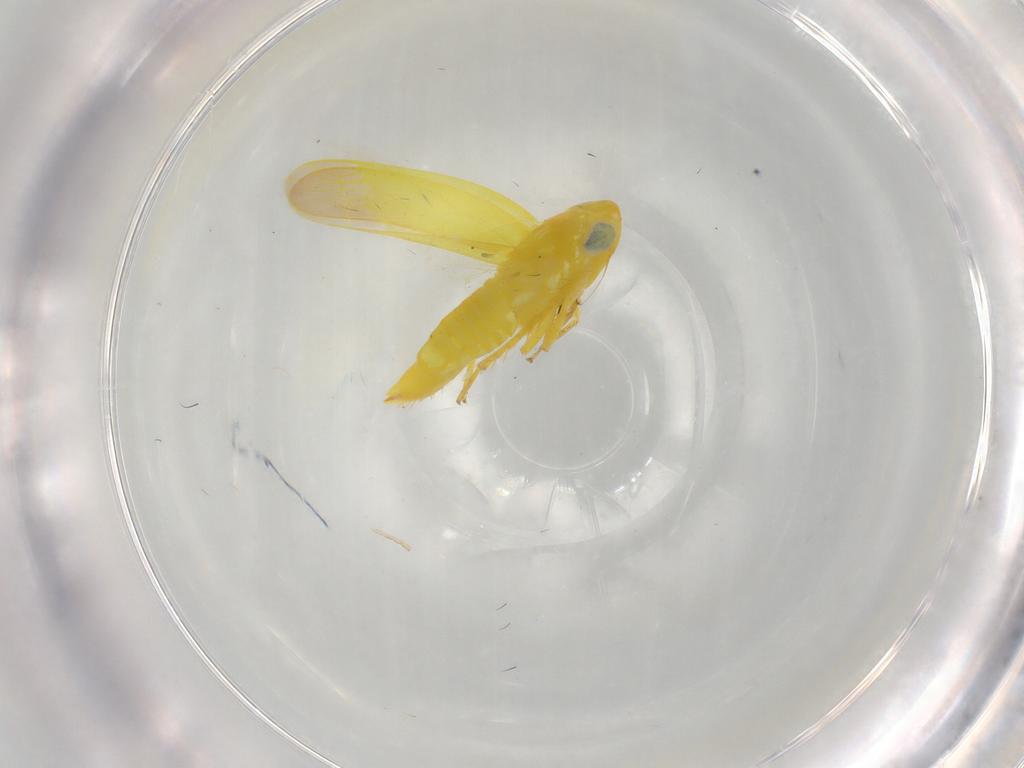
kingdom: Animalia
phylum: Arthropoda
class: Insecta
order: Hemiptera
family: Cicadellidae
